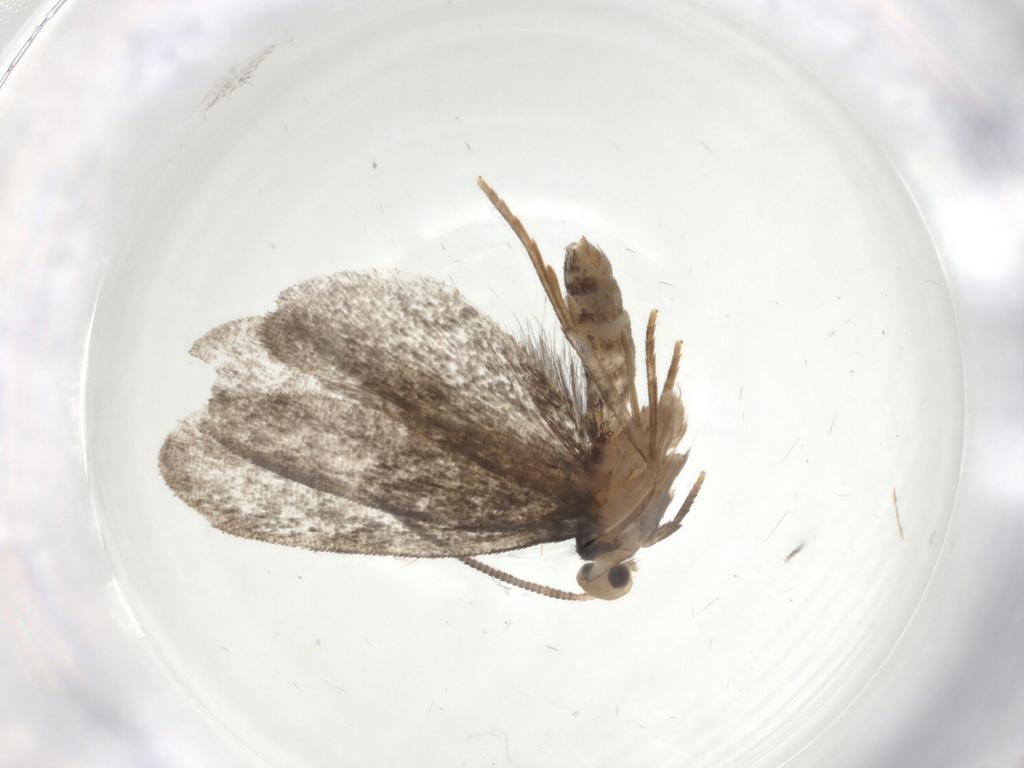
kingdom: Animalia
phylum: Arthropoda
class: Insecta
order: Lepidoptera
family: Dryadaulidae
